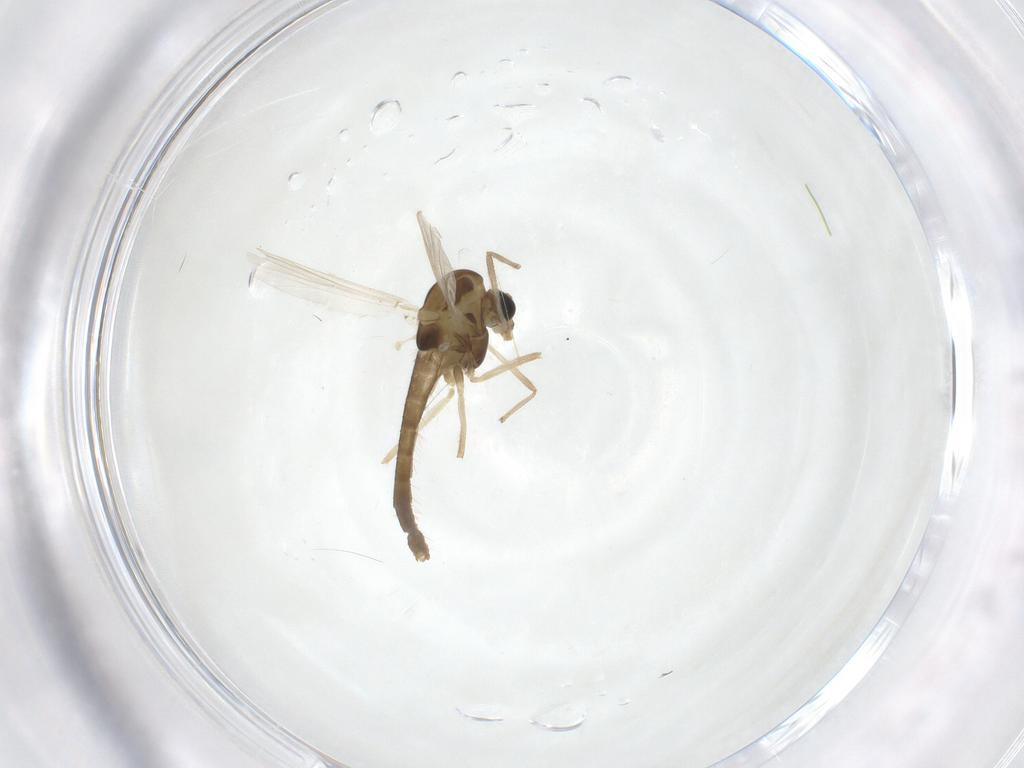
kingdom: Animalia
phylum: Arthropoda
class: Insecta
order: Diptera
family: Chironomidae
